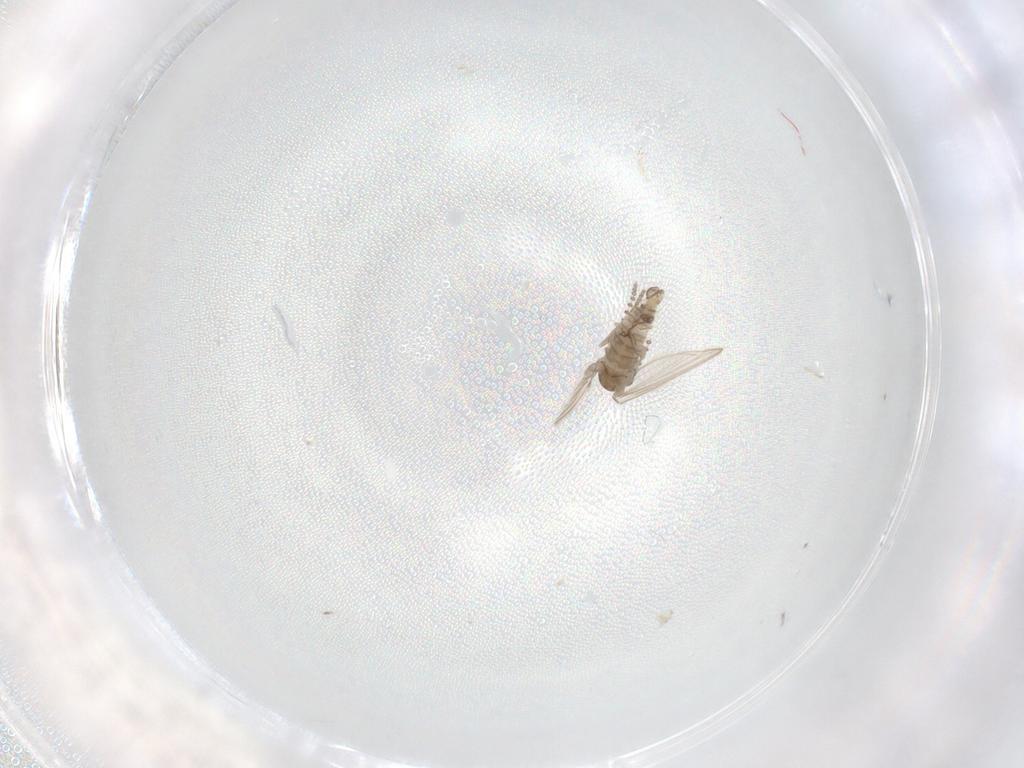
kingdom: Animalia
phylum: Arthropoda
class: Insecta
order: Diptera
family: Psychodidae
